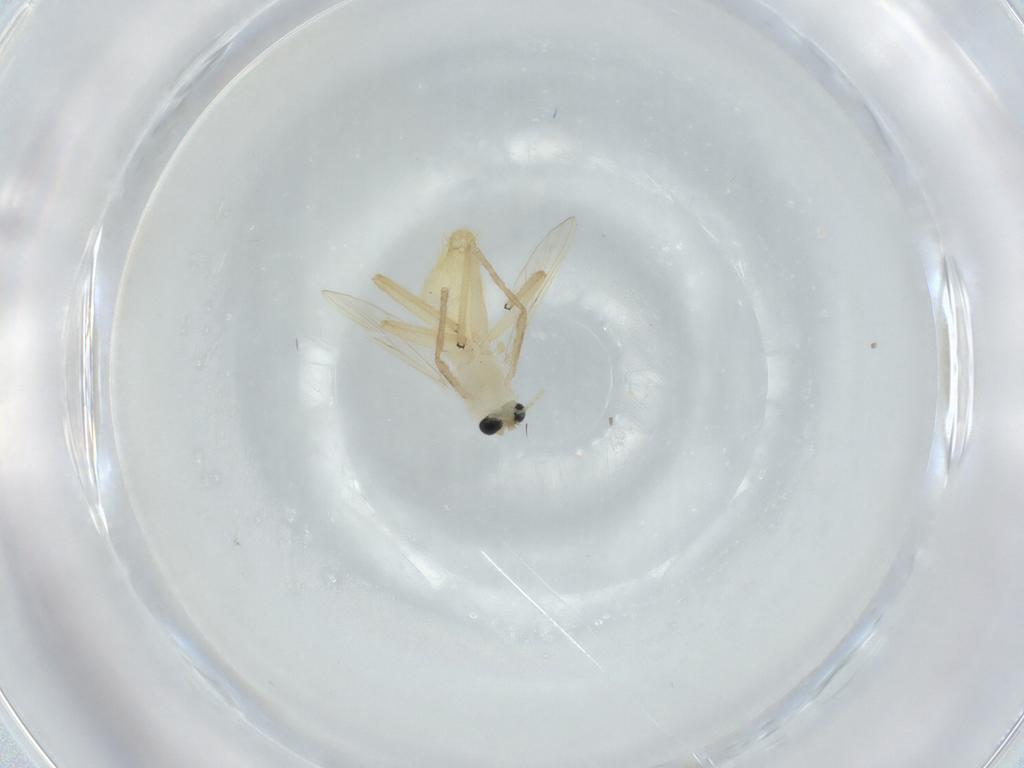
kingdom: Animalia
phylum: Arthropoda
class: Insecta
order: Diptera
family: Chironomidae
